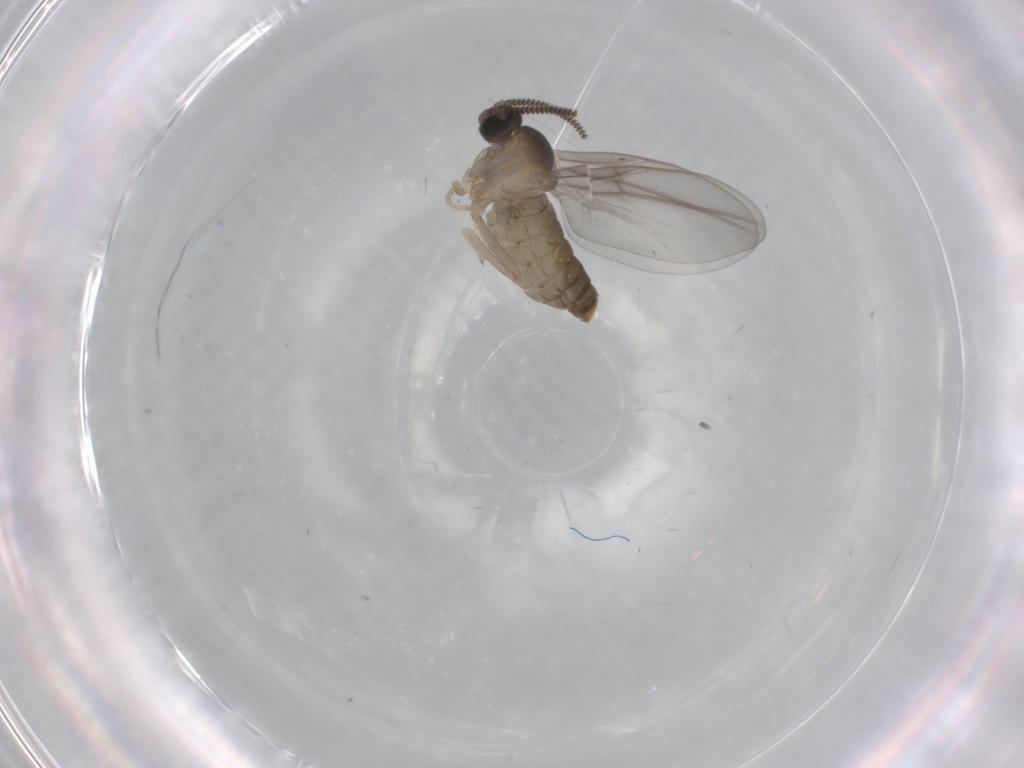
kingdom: Animalia
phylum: Arthropoda
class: Insecta
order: Diptera
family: Cecidomyiidae
